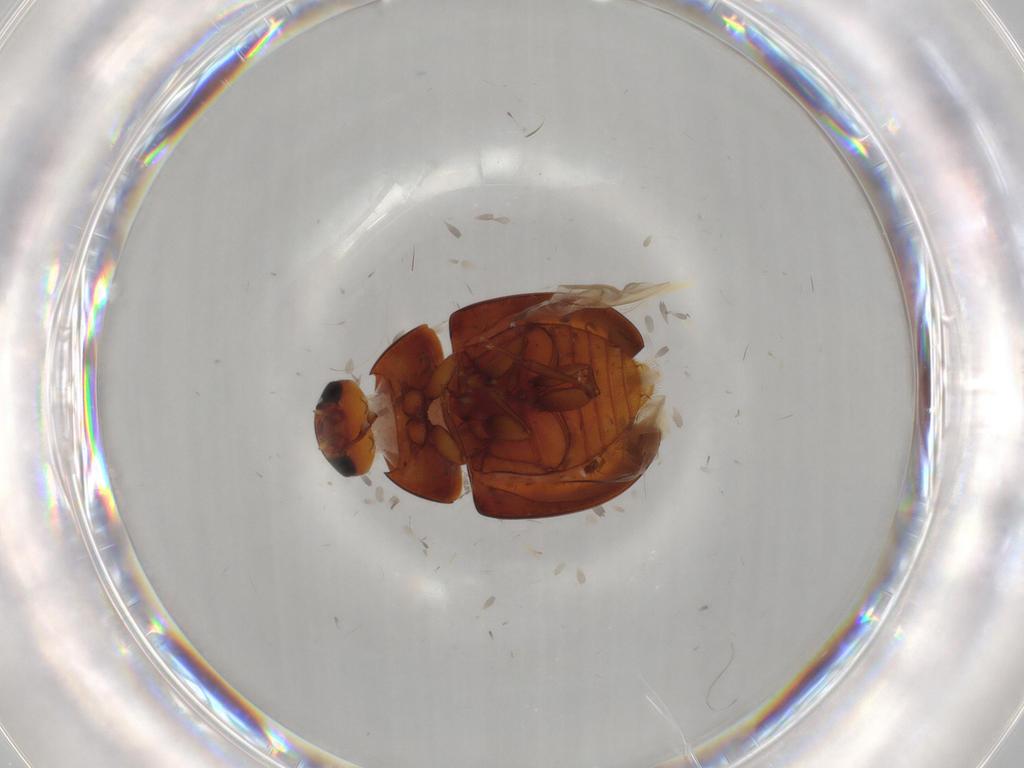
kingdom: Animalia
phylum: Arthropoda
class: Insecta
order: Coleoptera
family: Phalacridae
